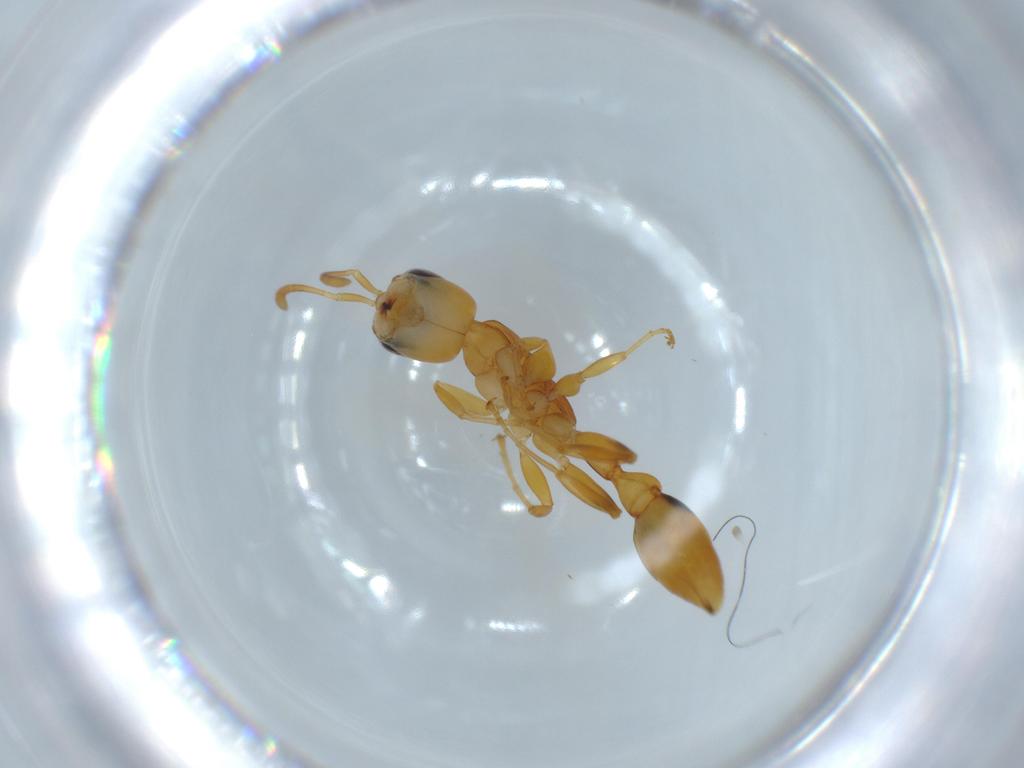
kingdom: Animalia
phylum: Arthropoda
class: Insecta
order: Hymenoptera
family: Formicidae
